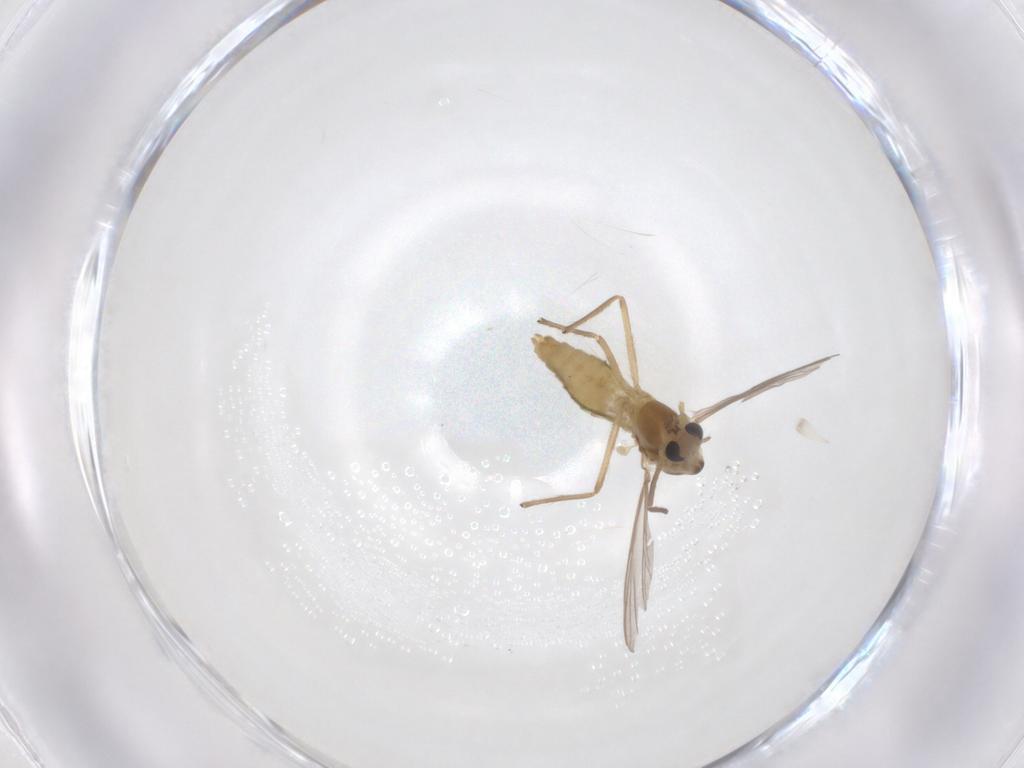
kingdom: Animalia
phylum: Arthropoda
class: Insecta
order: Diptera
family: Chironomidae
